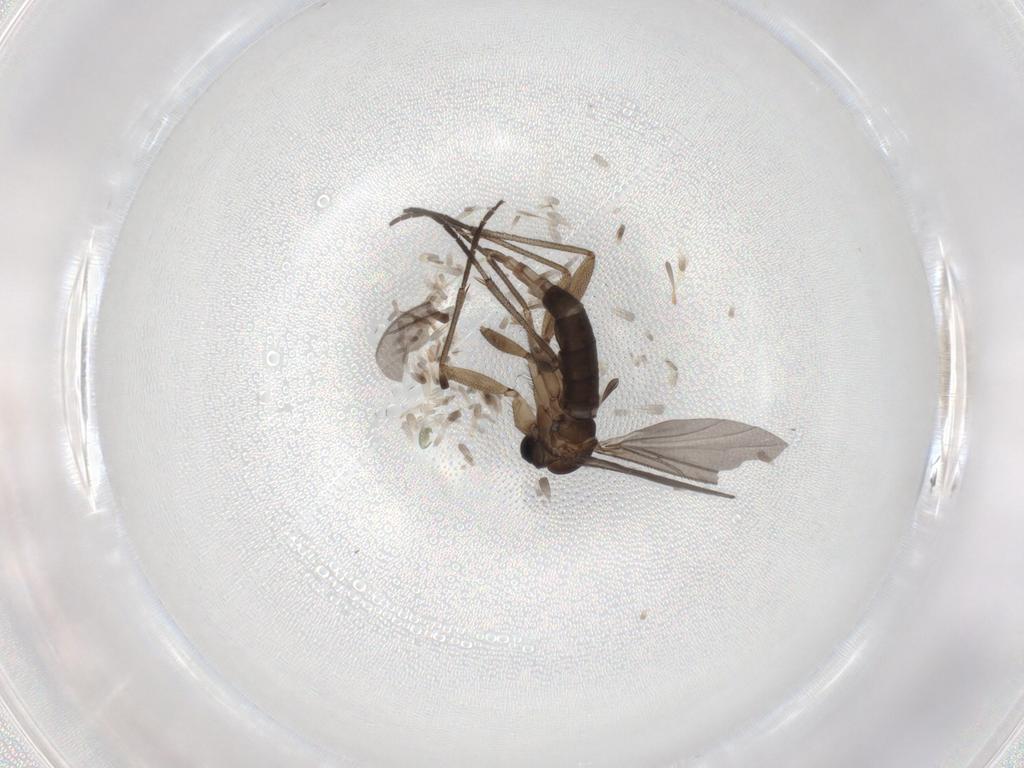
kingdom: Animalia
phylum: Arthropoda
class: Insecta
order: Diptera
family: Sciaridae
